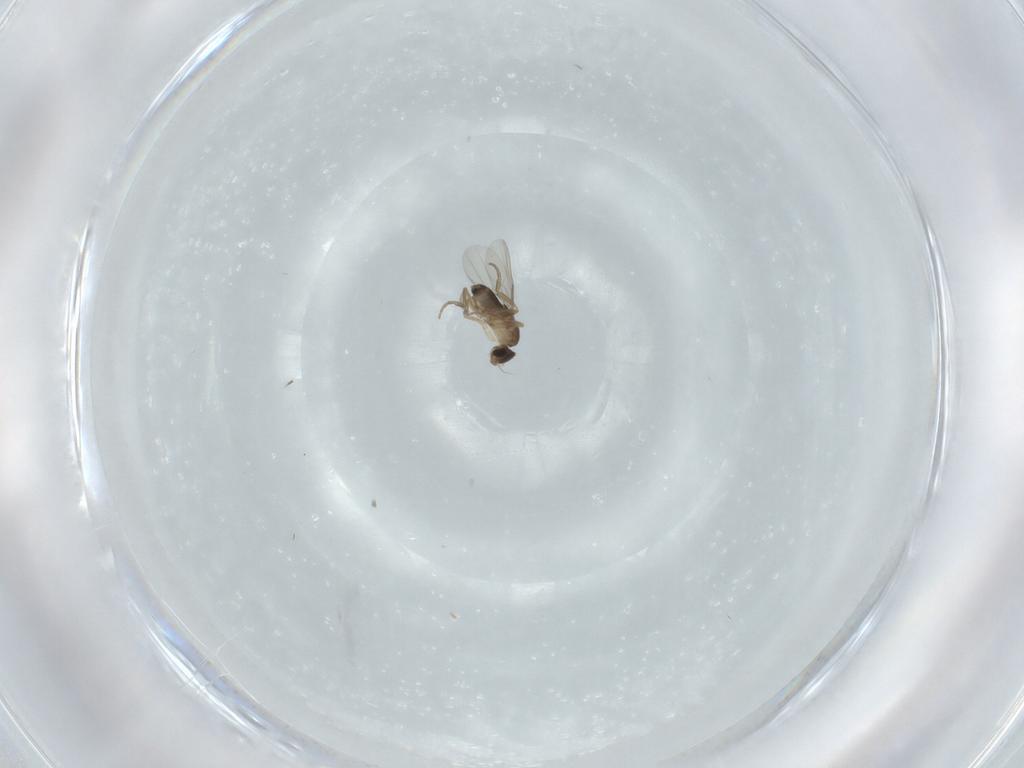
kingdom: Animalia
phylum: Arthropoda
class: Insecta
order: Diptera
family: Phoridae
